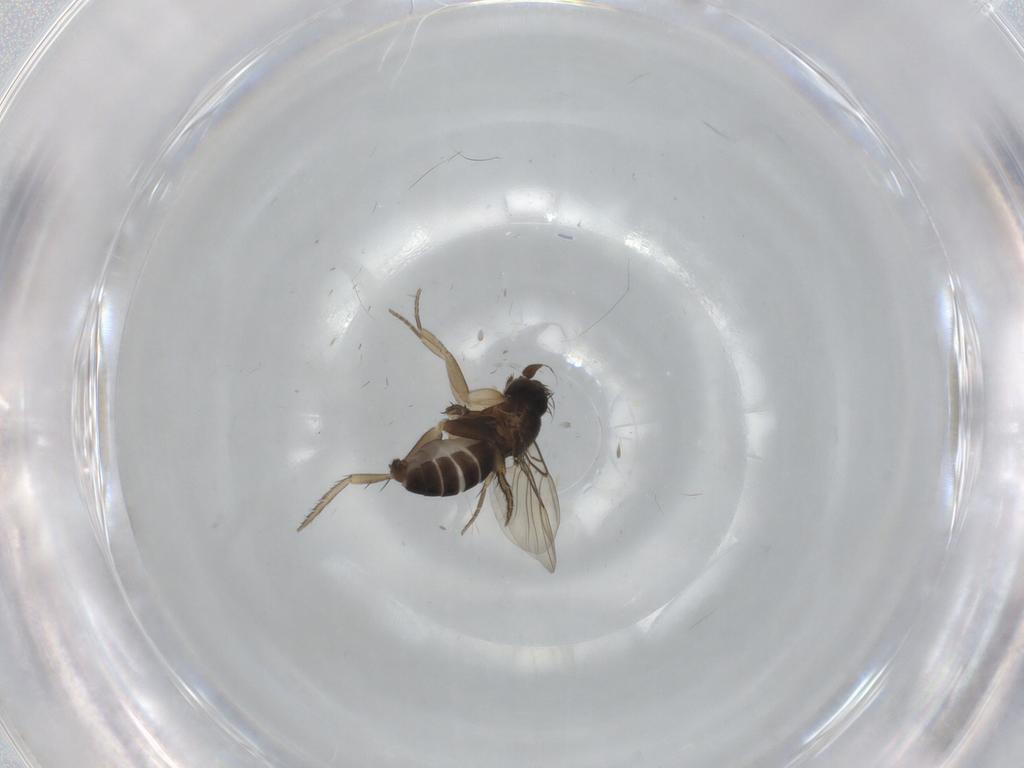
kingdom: Animalia
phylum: Arthropoda
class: Insecta
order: Diptera
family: Phoridae
